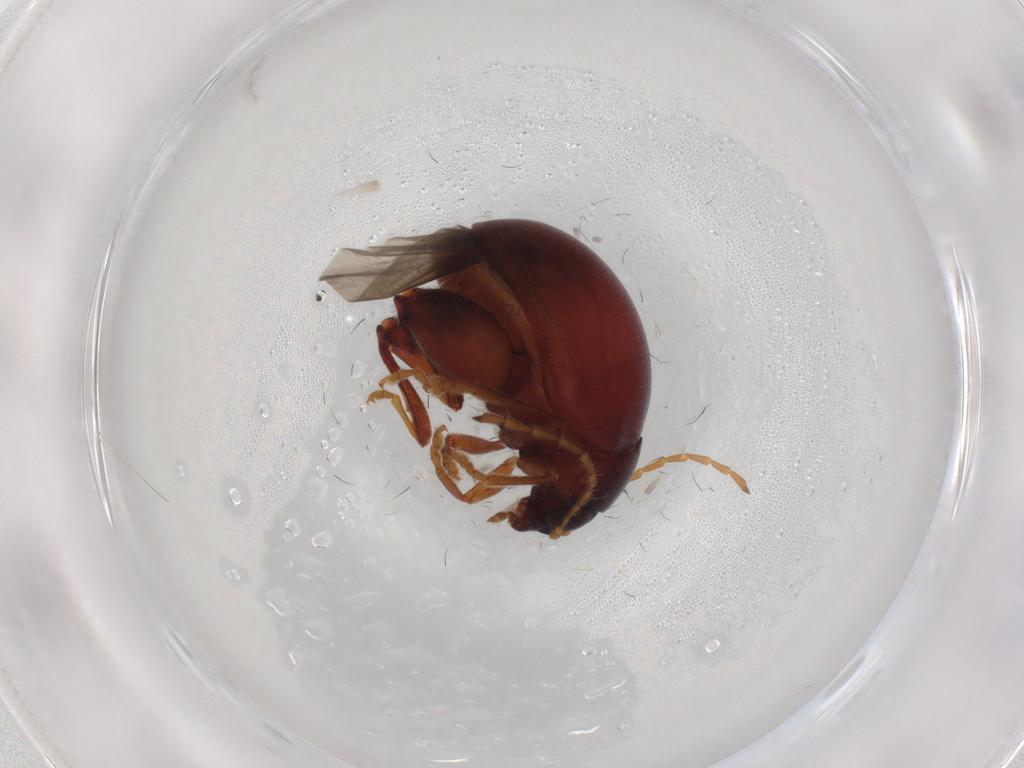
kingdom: Animalia
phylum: Arthropoda
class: Insecta
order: Coleoptera
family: Chrysomelidae
